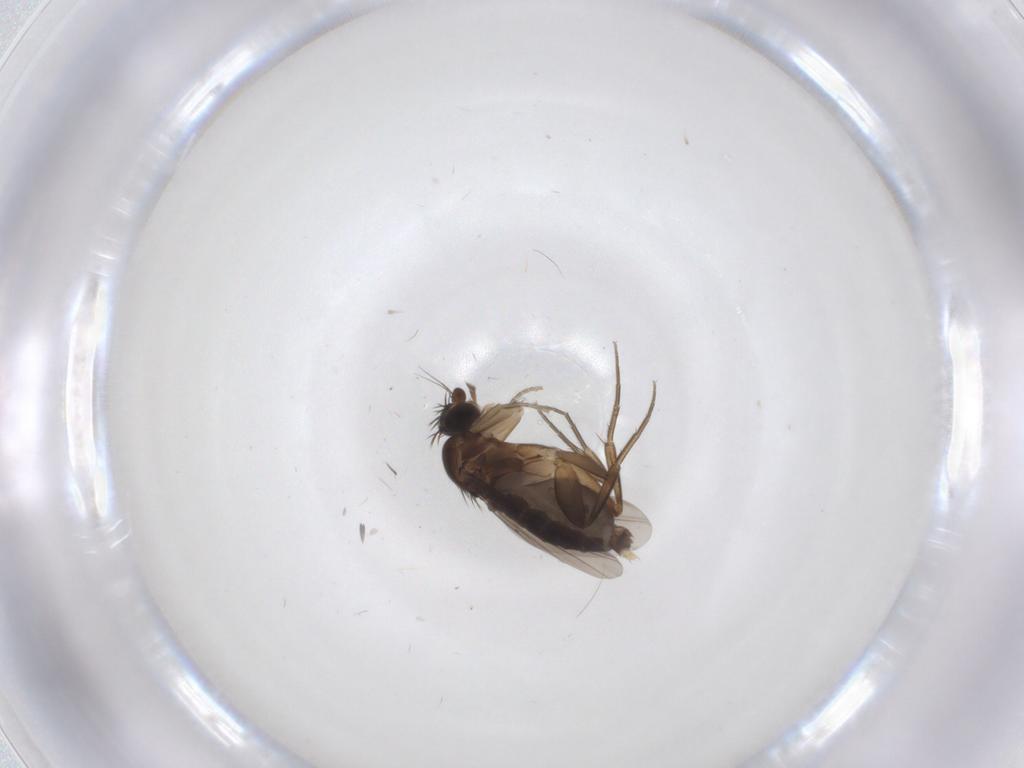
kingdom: Animalia
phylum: Arthropoda
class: Insecta
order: Diptera
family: Phoridae
